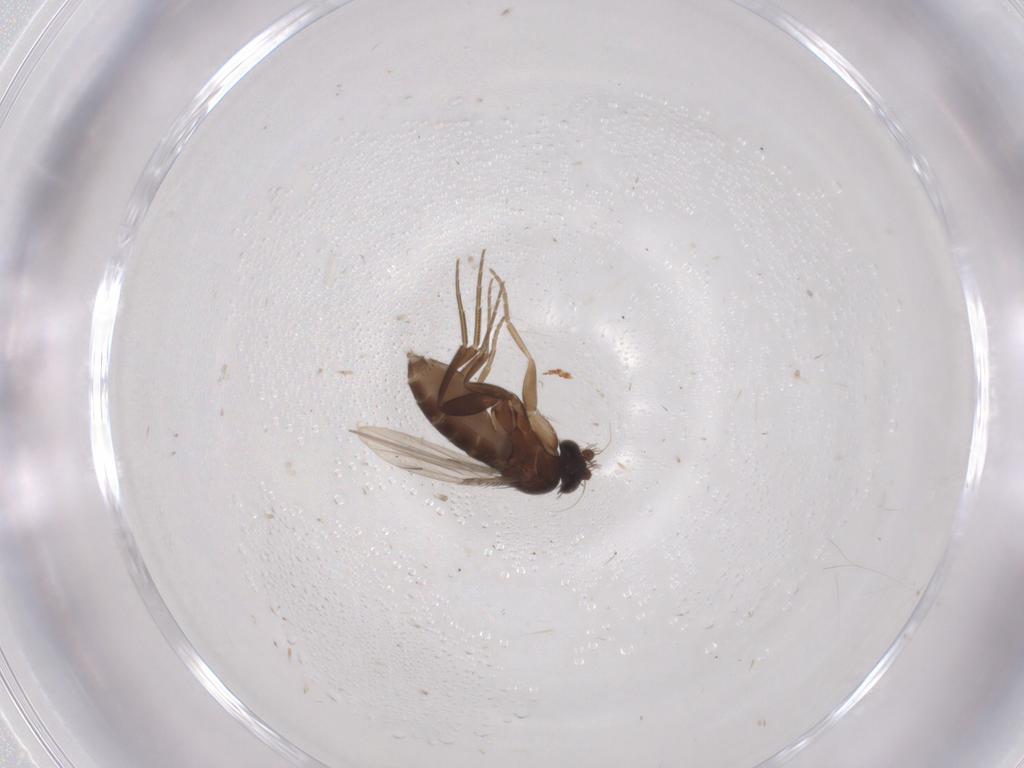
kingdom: Animalia
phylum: Arthropoda
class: Insecta
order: Diptera
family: Phoridae
